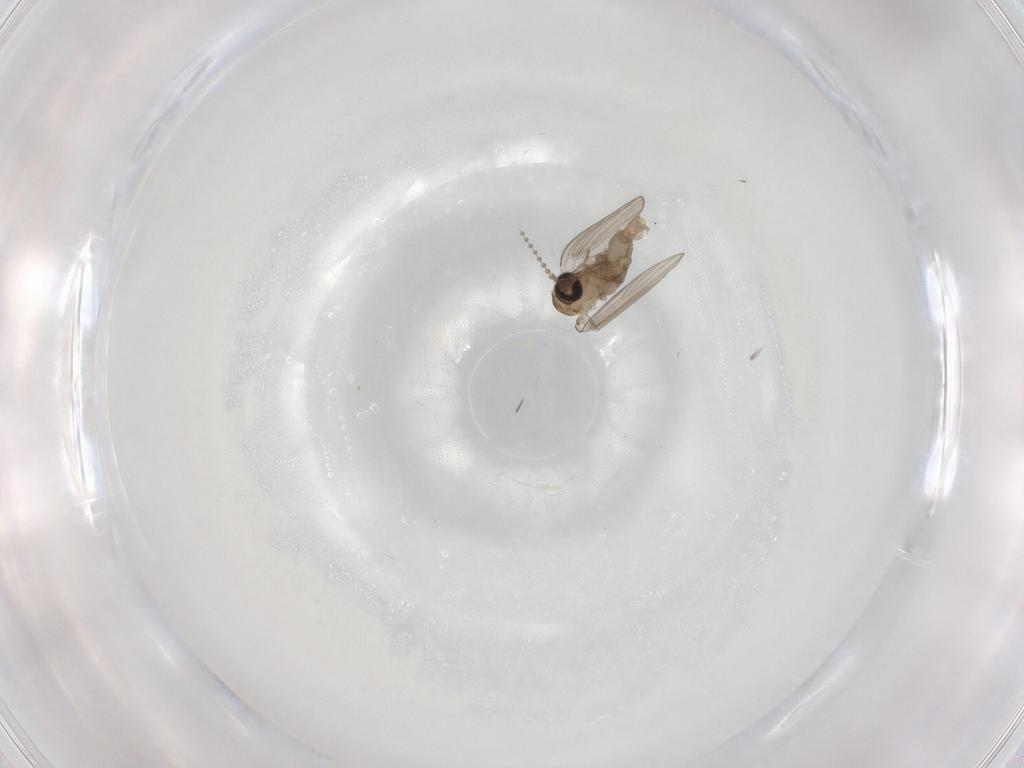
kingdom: Animalia
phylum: Arthropoda
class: Insecta
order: Diptera
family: Psychodidae
